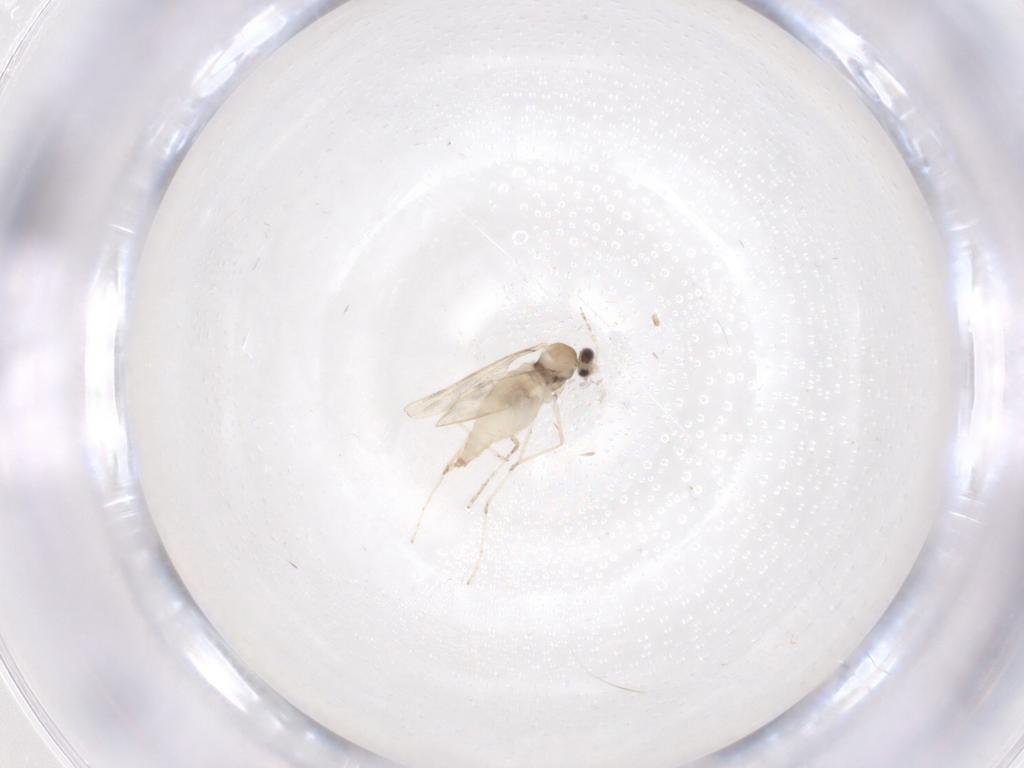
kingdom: Animalia
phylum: Arthropoda
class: Insecta
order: Diptera
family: Cecidomyiidae
